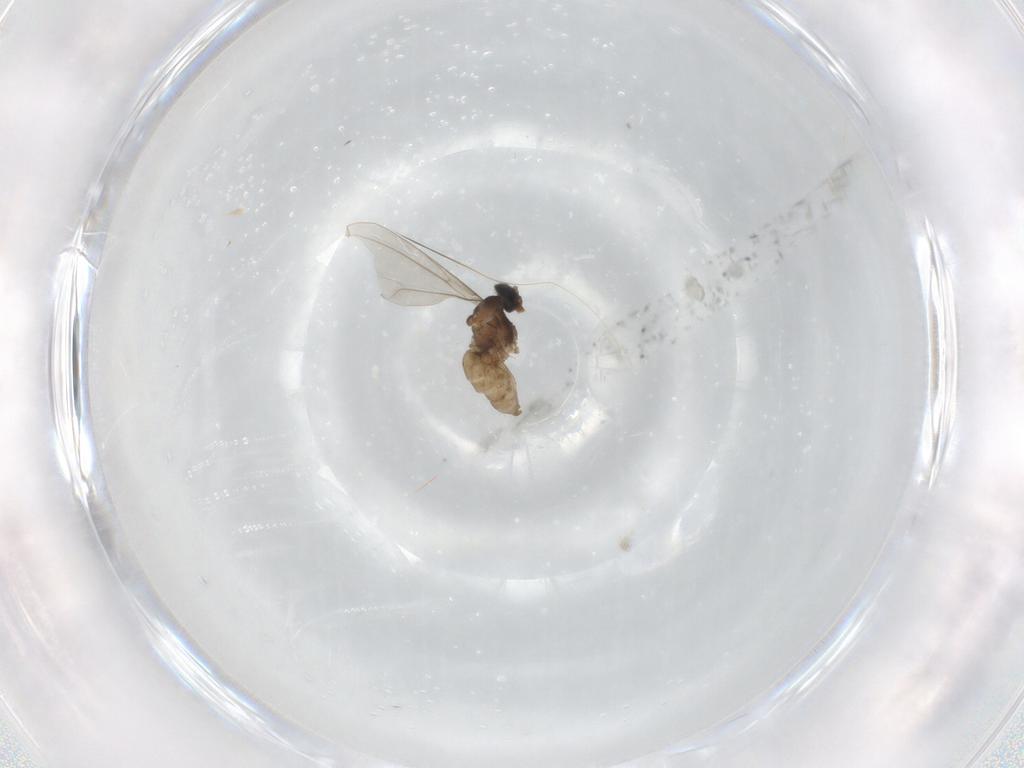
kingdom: Animalia
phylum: Arthropoda
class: Insecta
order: Diptera
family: Cecidomyiidae
